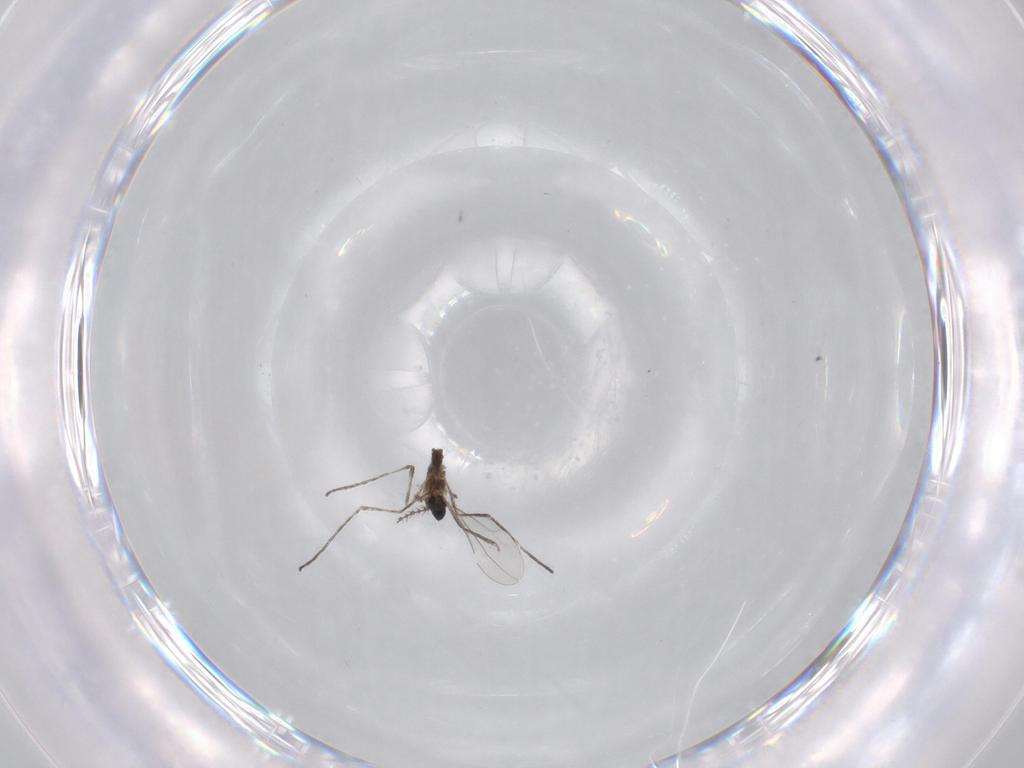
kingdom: Animalia
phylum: Arthropoda
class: Insecta
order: Diptera
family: Cecidomyiidae
